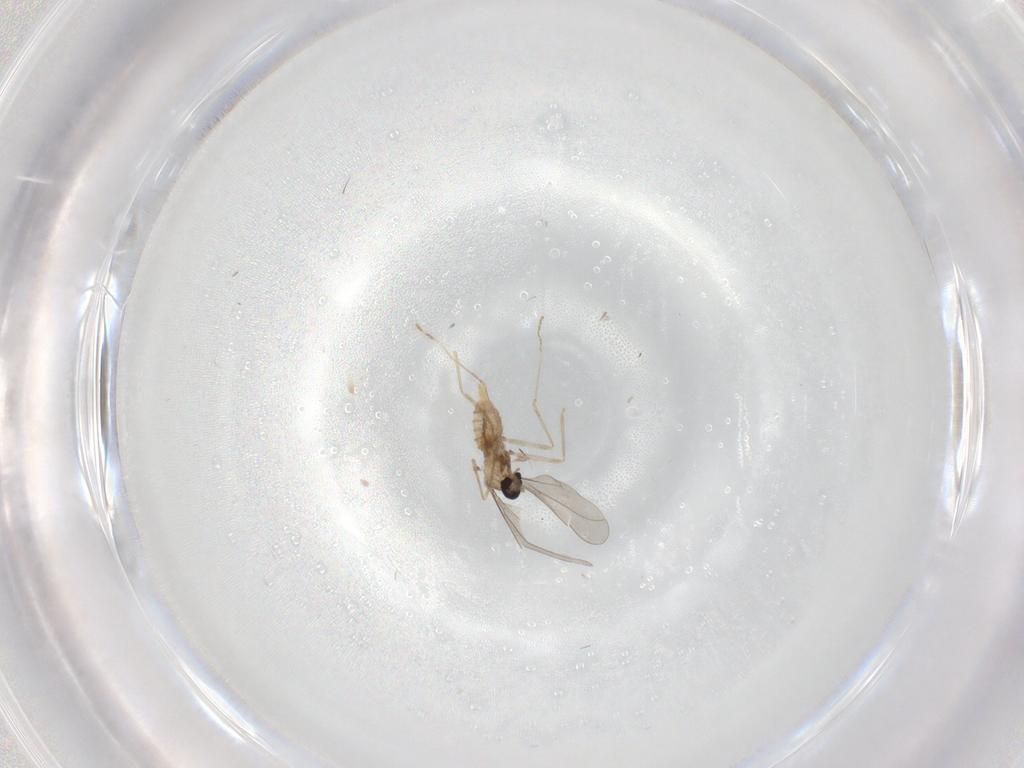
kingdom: Animalia
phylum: Arthropoda
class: Insecta
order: Diptera
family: Cecidomyiidae
